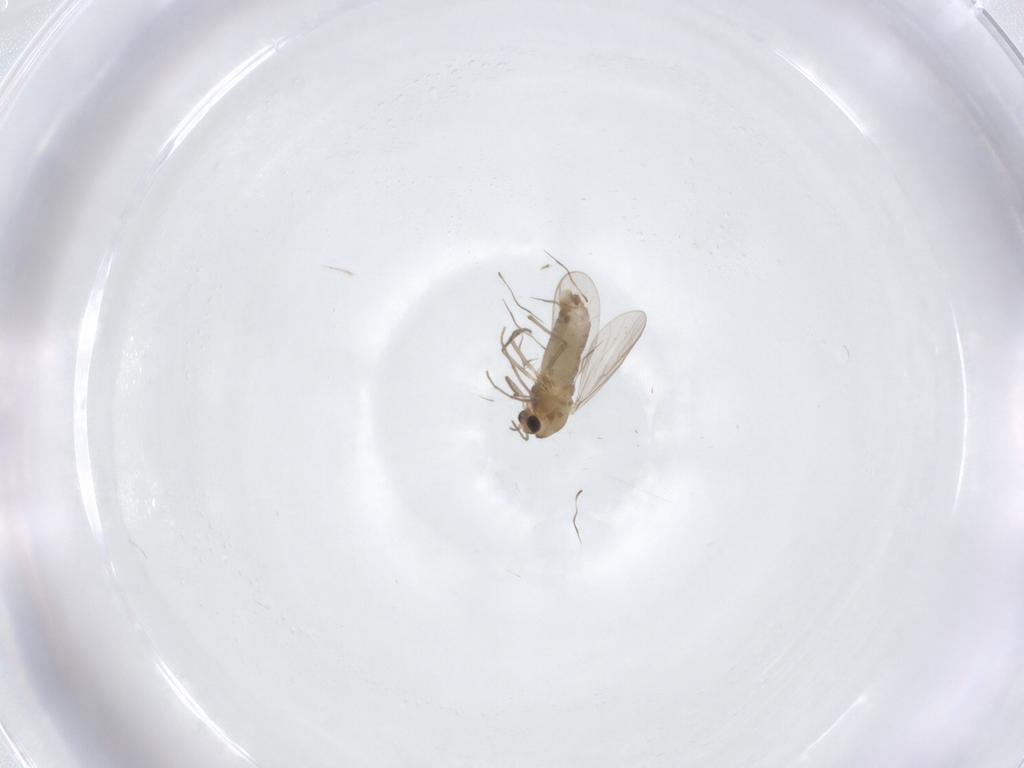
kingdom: Animalia
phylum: Arthropoda
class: Insecta
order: Diptera
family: Chironomidae
